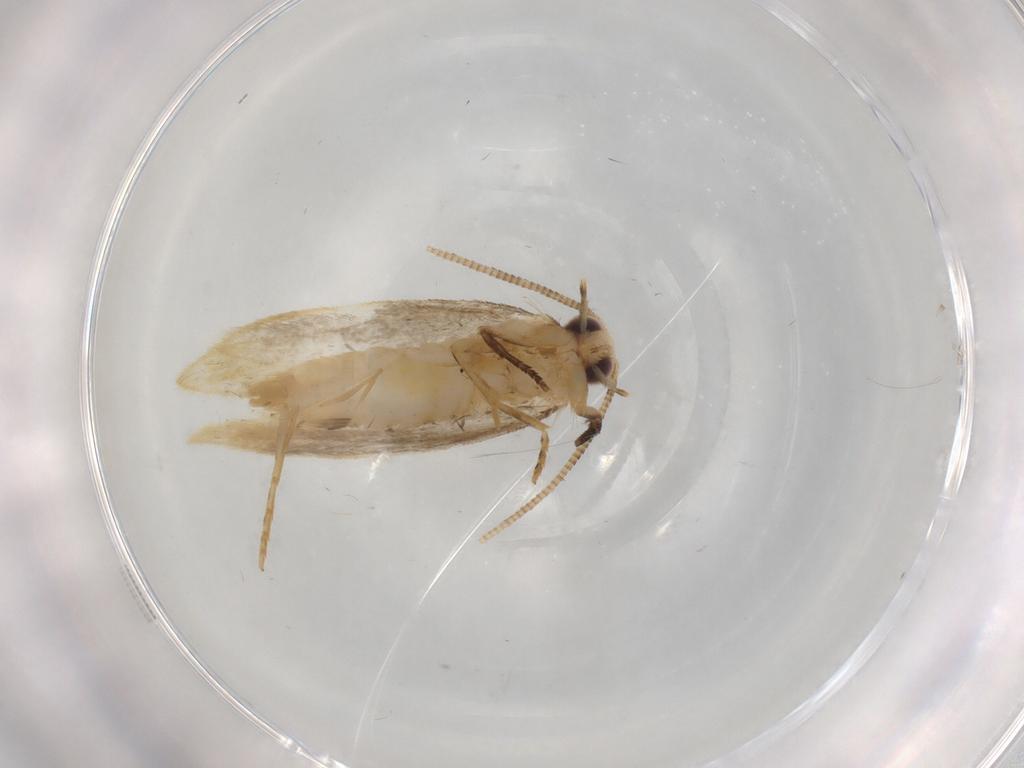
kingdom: Animalia
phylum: Arthropoda
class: Insecta
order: Lepidoptera
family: Tineidae
